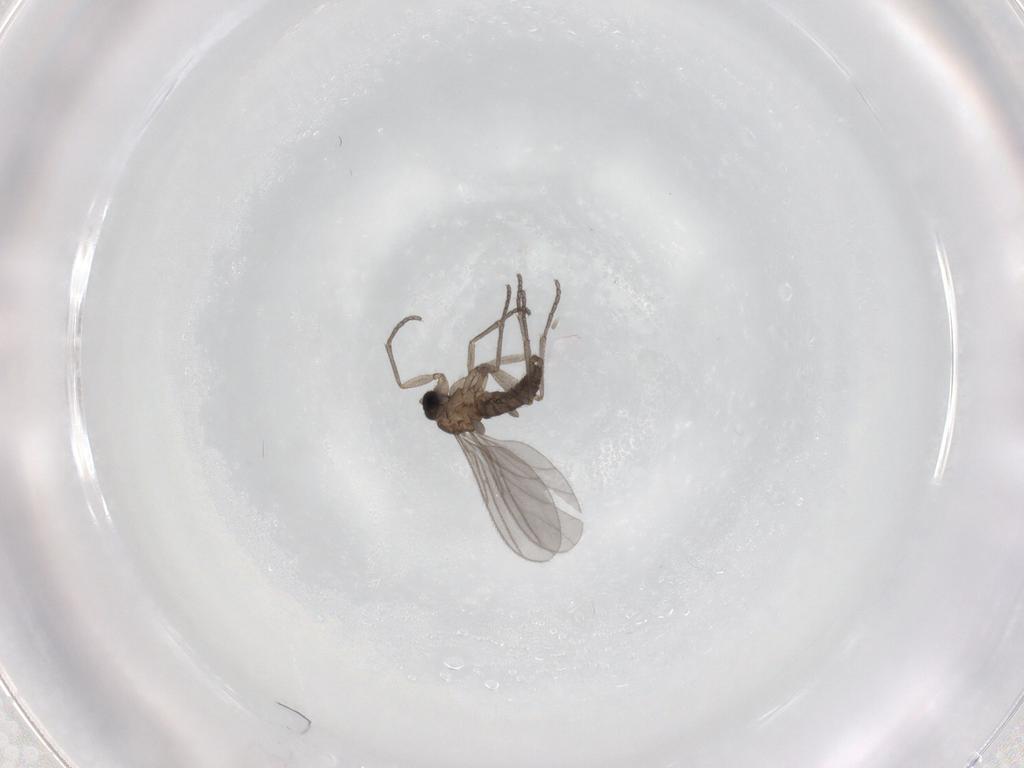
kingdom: Animalia
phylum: Arthropoda
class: Insecta
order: Diptera
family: Sciaridae
